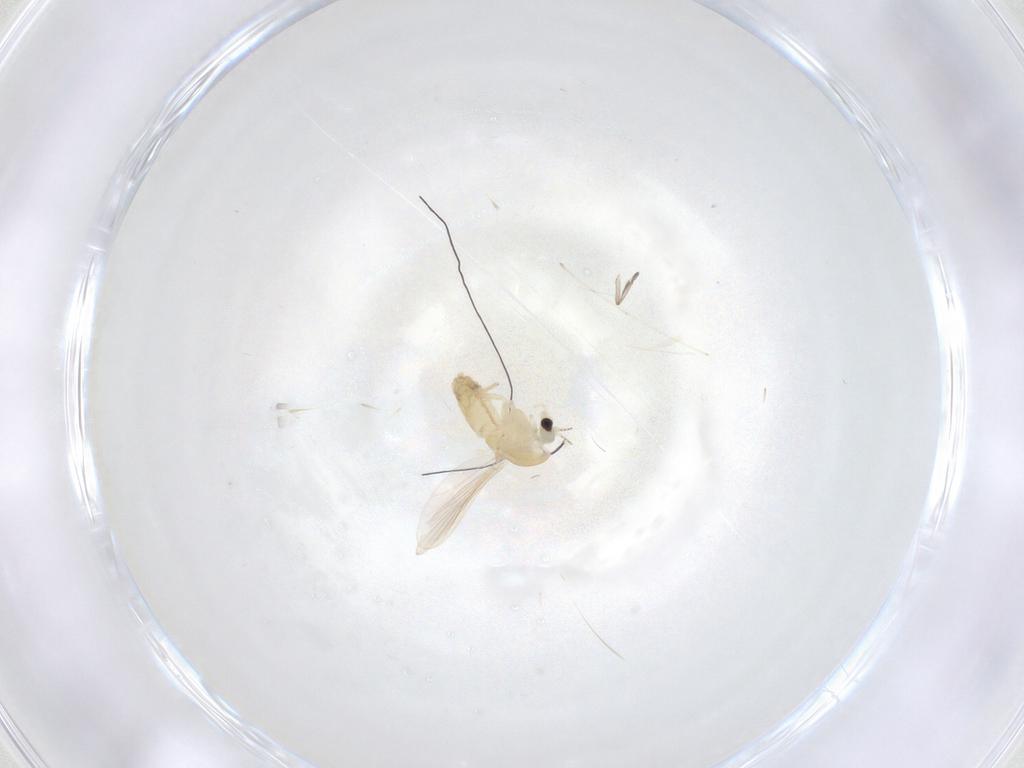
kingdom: Animalia
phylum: Arthropoda
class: Insecta
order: Diptera
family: Chironomidae
